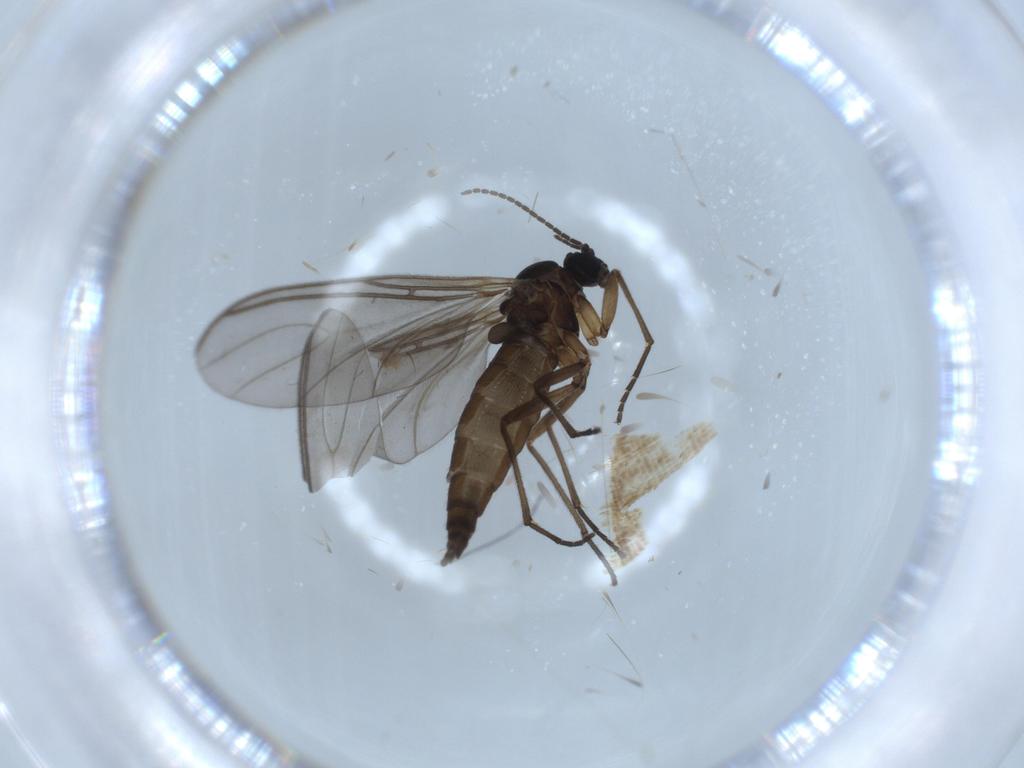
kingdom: Animalia
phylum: Arthropoda
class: Insecta
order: Diptera
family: Sciaridae
